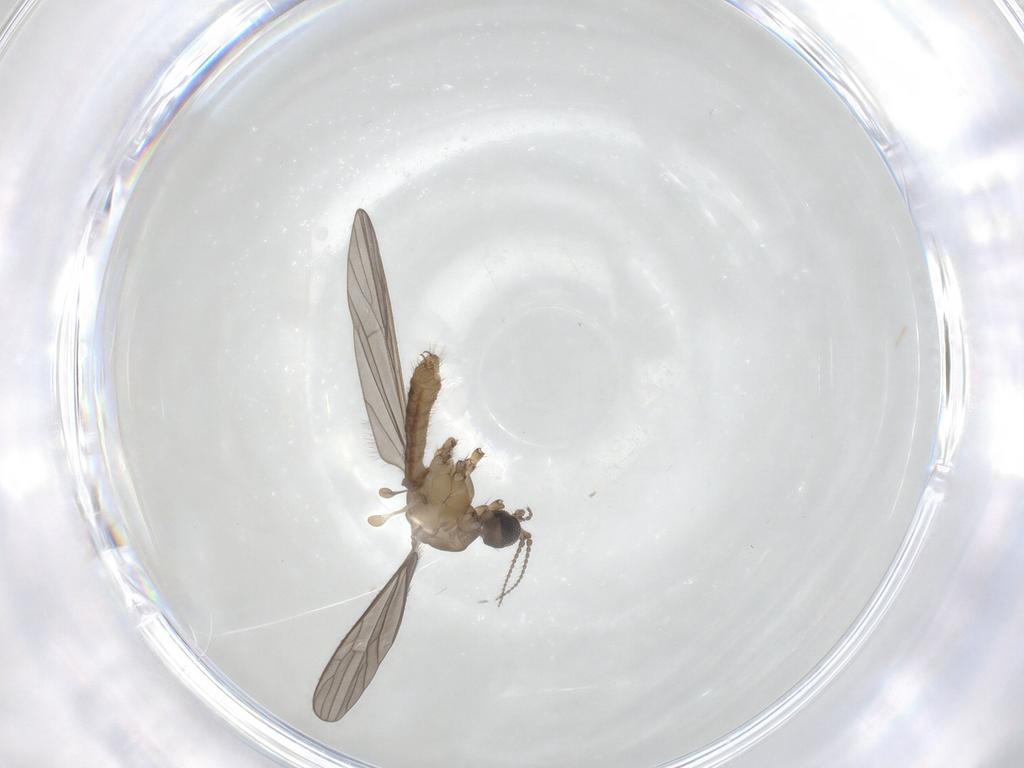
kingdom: Animalia
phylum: Arthropoda
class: Insecta
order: Diptera
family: Limoniidae
